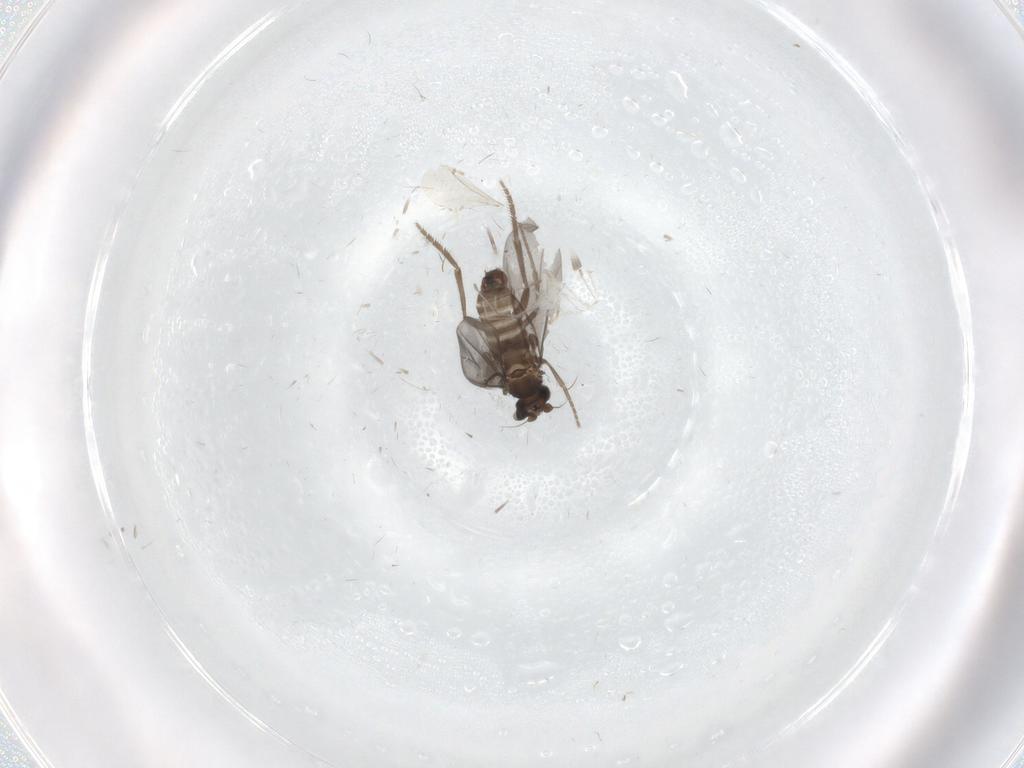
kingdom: Animalia
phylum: Arthropoda
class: Insecta
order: Diptera
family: Phoridae
